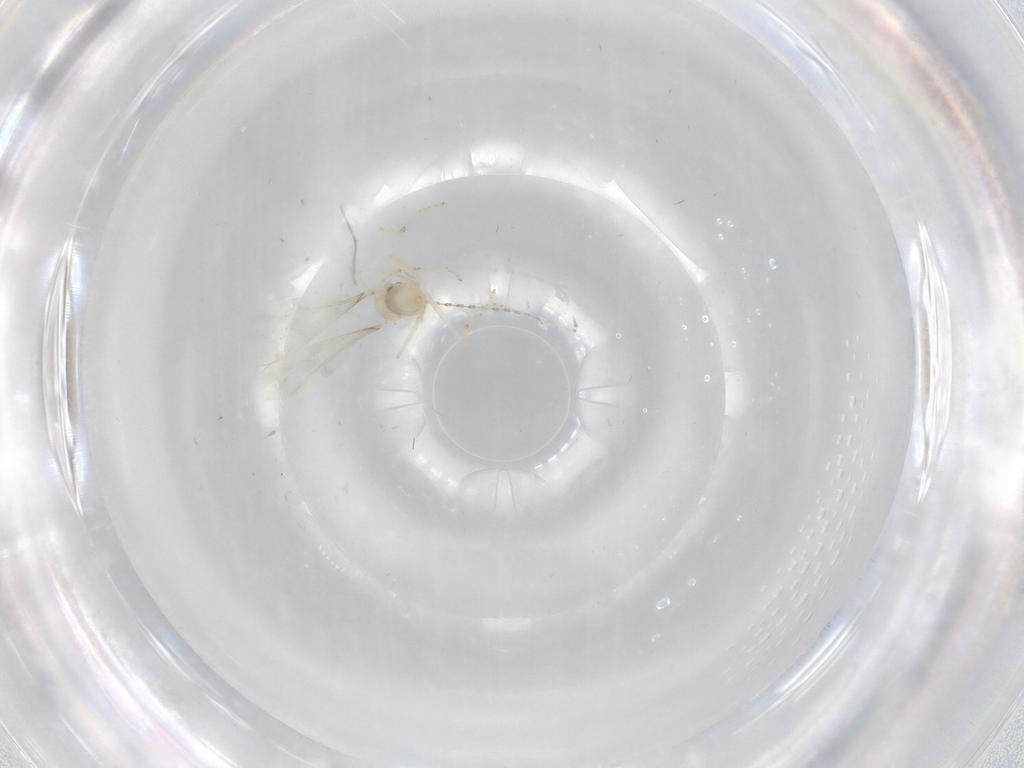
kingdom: Animalia
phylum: Arthropoda
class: Insecta
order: Diptera
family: Cecidomyiidae
